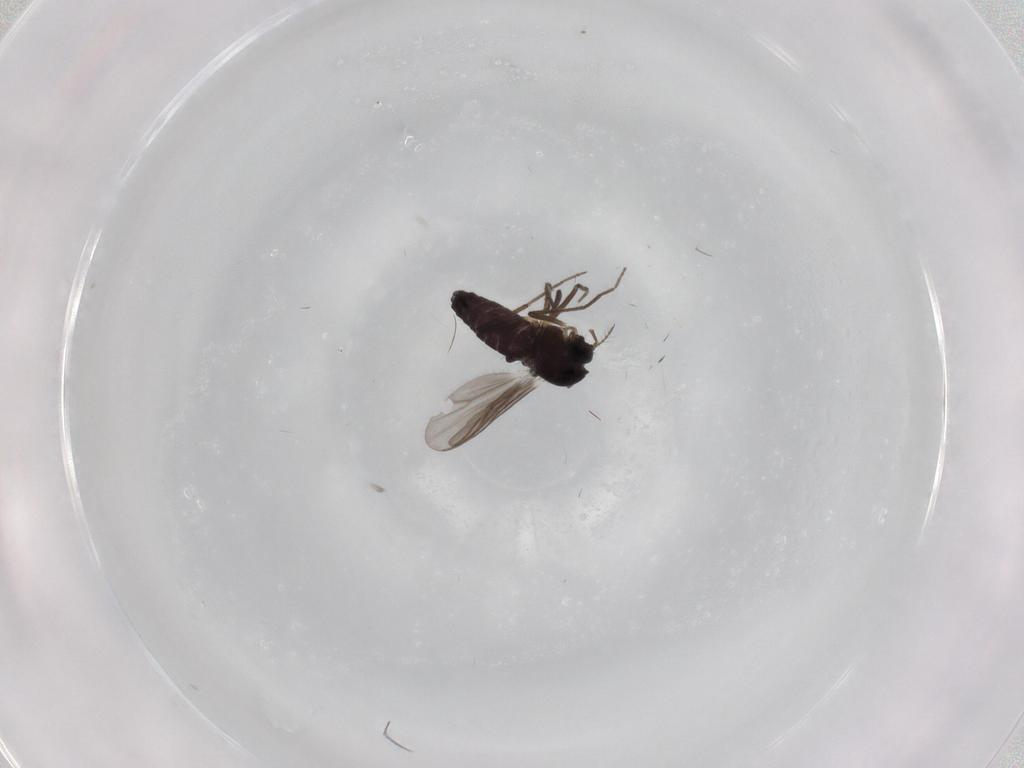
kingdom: Animalia
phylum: Arthropoda
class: Insecta
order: Diptera
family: Chironomidae
